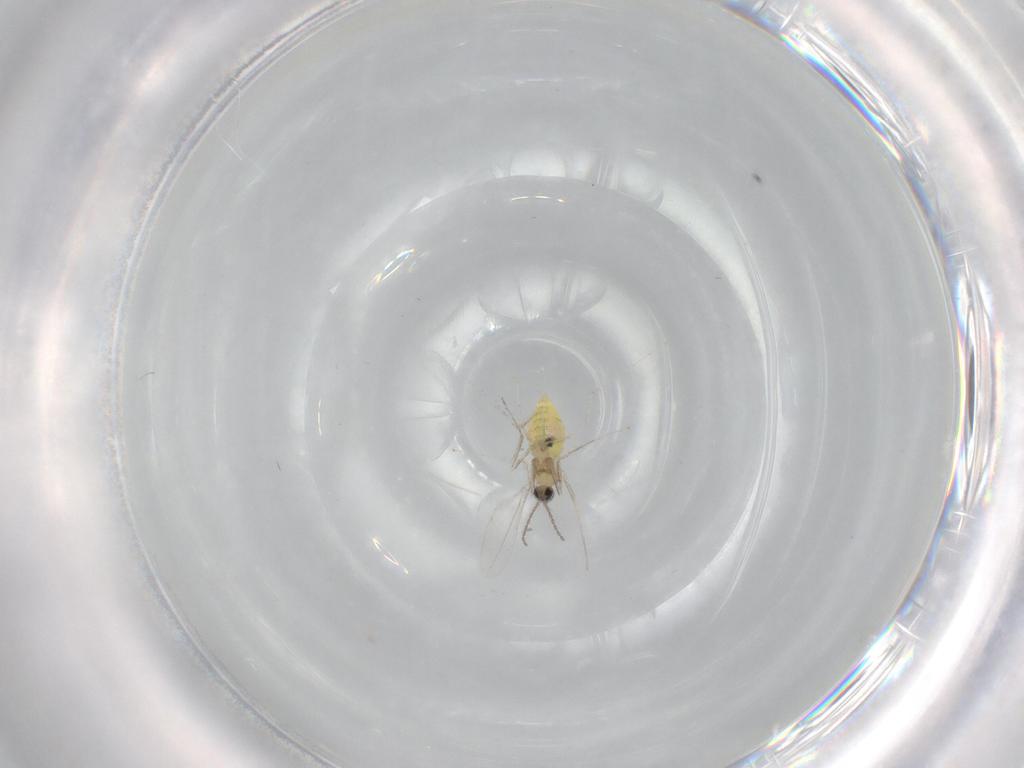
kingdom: Animalia
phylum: Arthropoda
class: Insecta
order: Diptera
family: Cecidomyiidae
